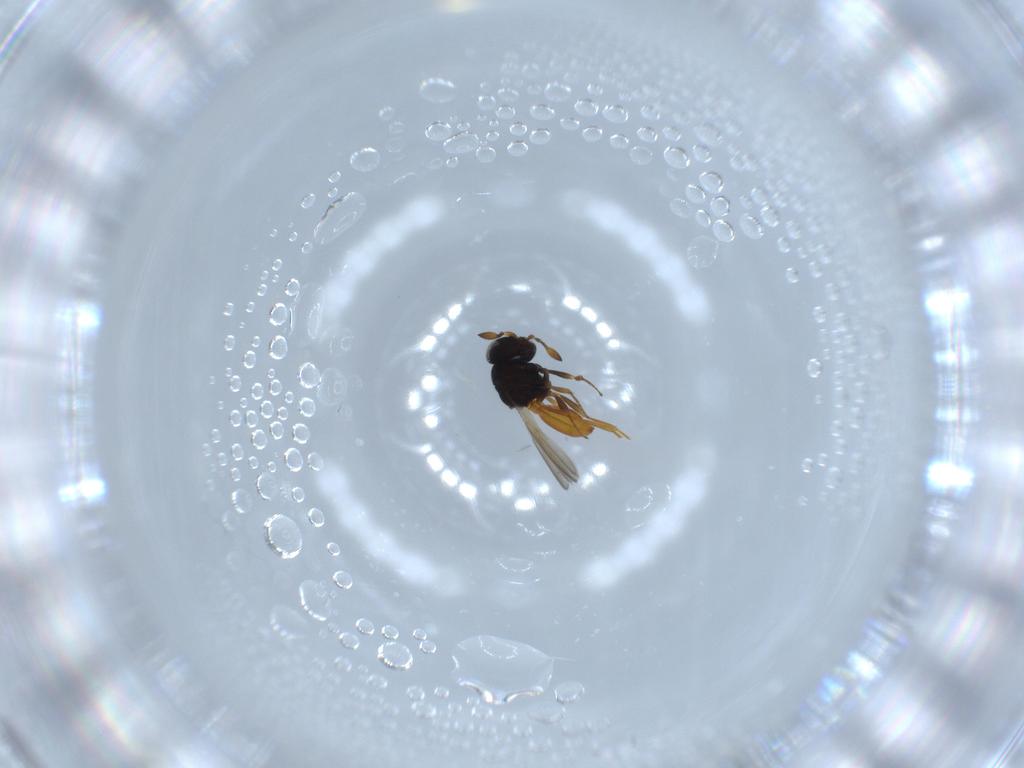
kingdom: Animalia
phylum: Arthropoda
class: Insecta
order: Hymenoptera
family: Scelionidae
